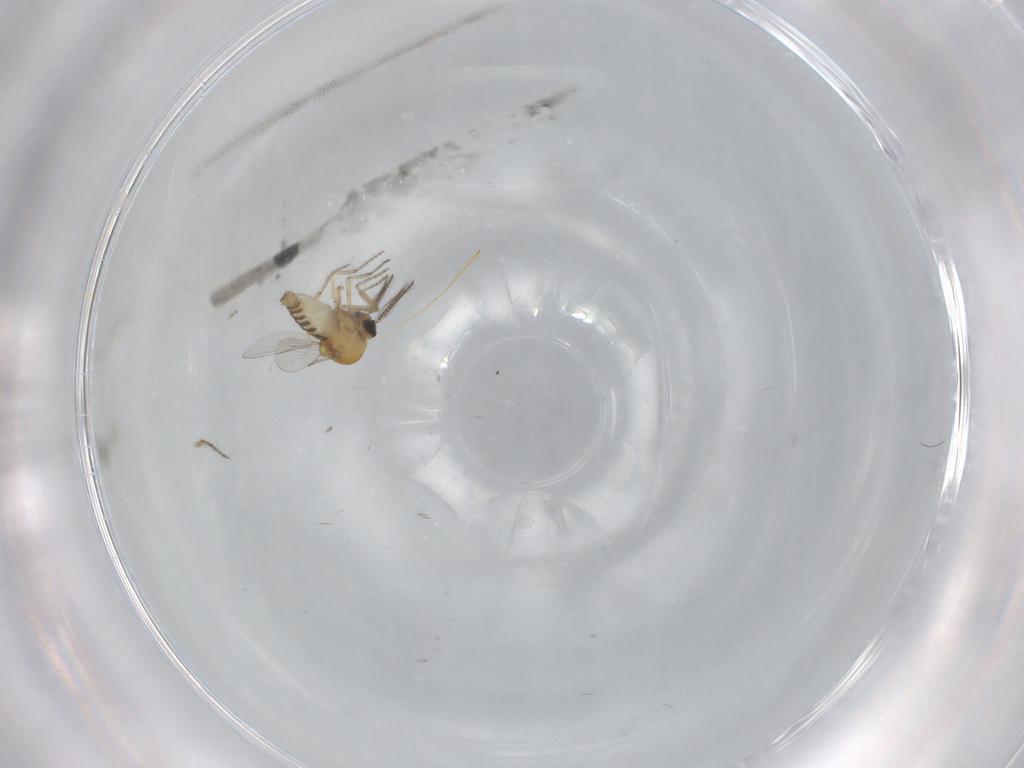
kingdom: Animalia
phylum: Arthropoda
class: Insecta
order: Diptera
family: Ceratopogonidae
